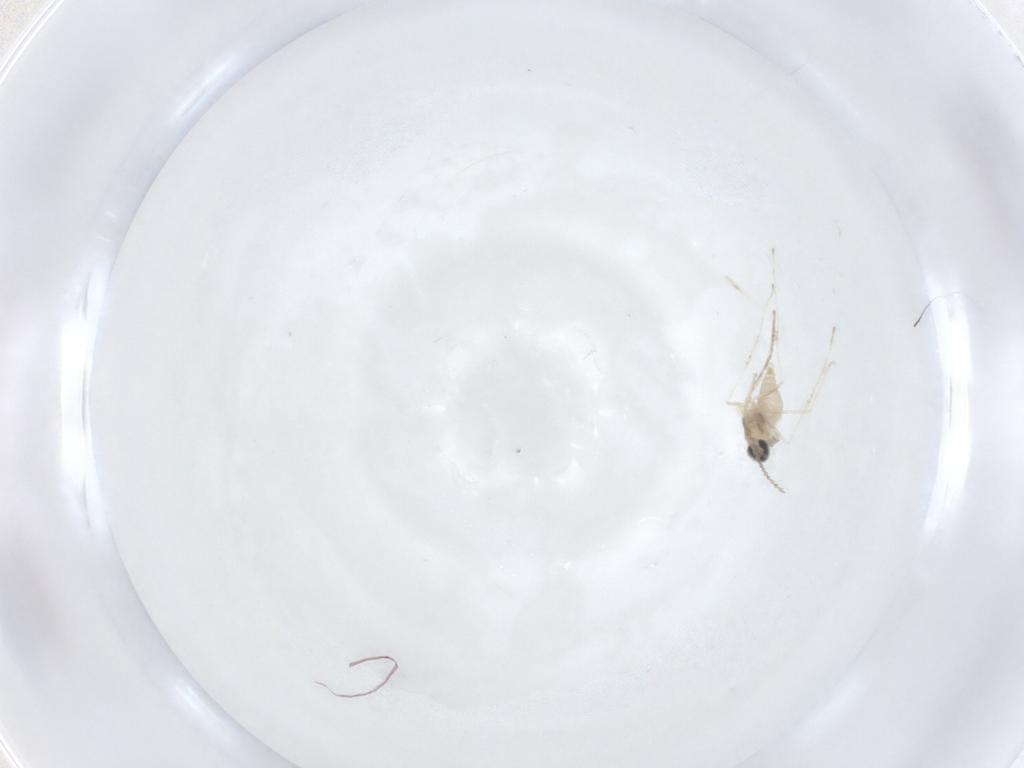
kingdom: Animalia
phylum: Arthropoda
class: Insecta
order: Diptera
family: Cecidomyiidae
